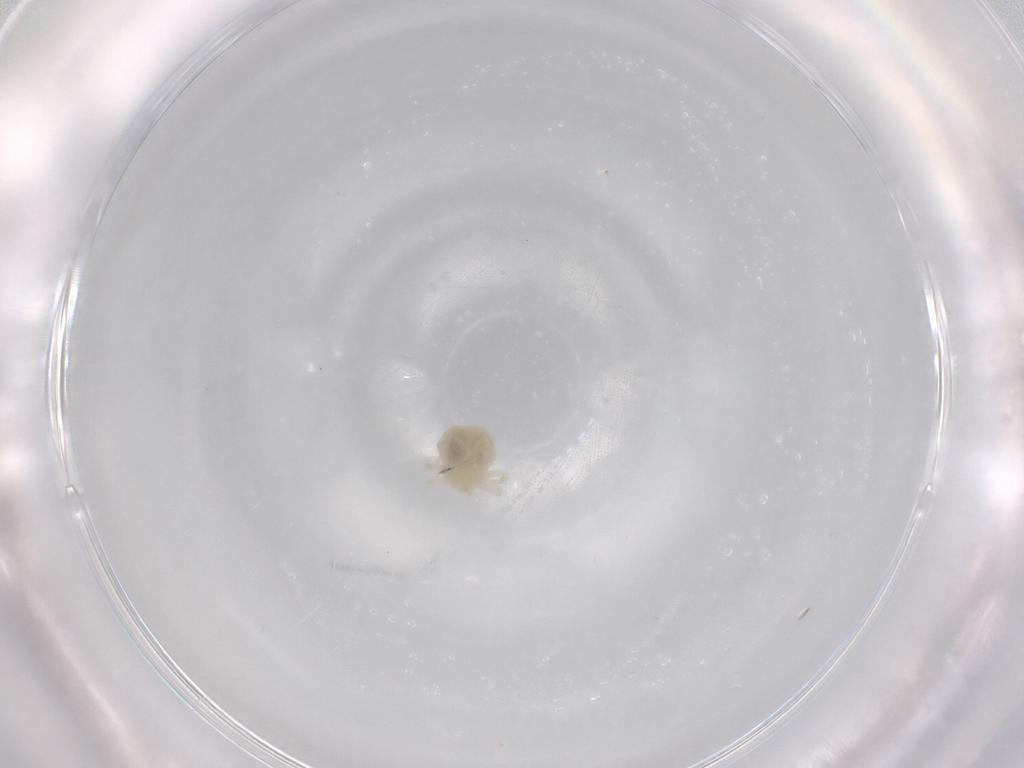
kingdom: Animalia
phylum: Arthropoda
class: Arachnida
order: Trombidiformes
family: Anystidae
